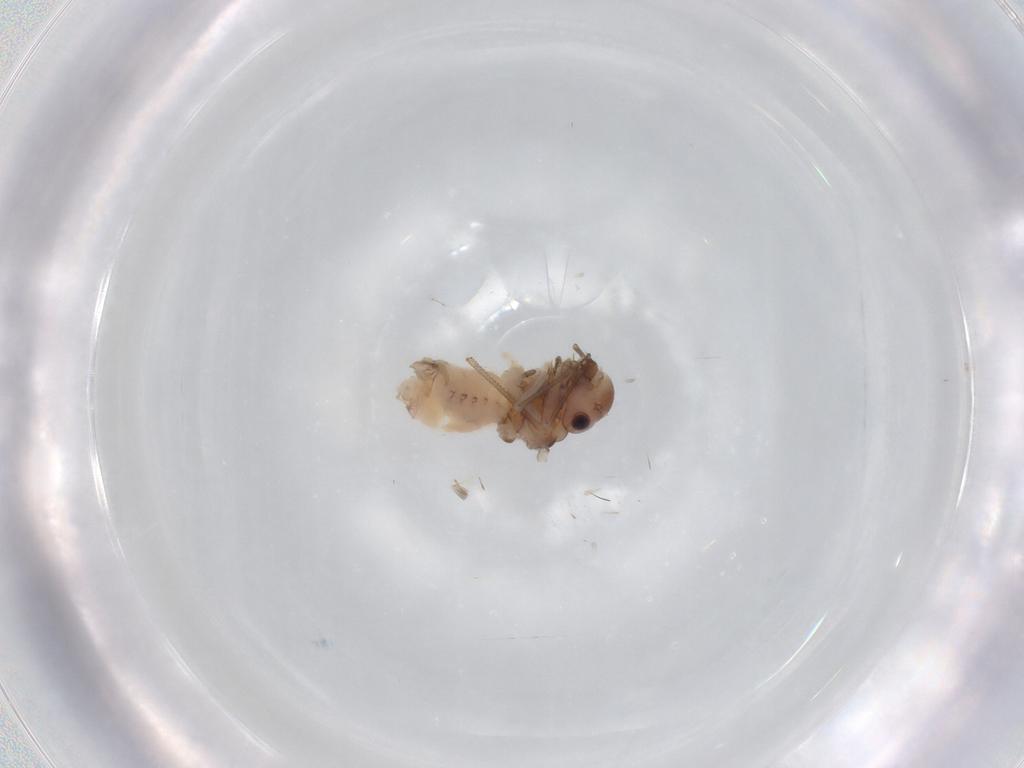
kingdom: Animalia
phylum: Arthropoda
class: Insecta
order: Psocodea
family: Peripsocidae
